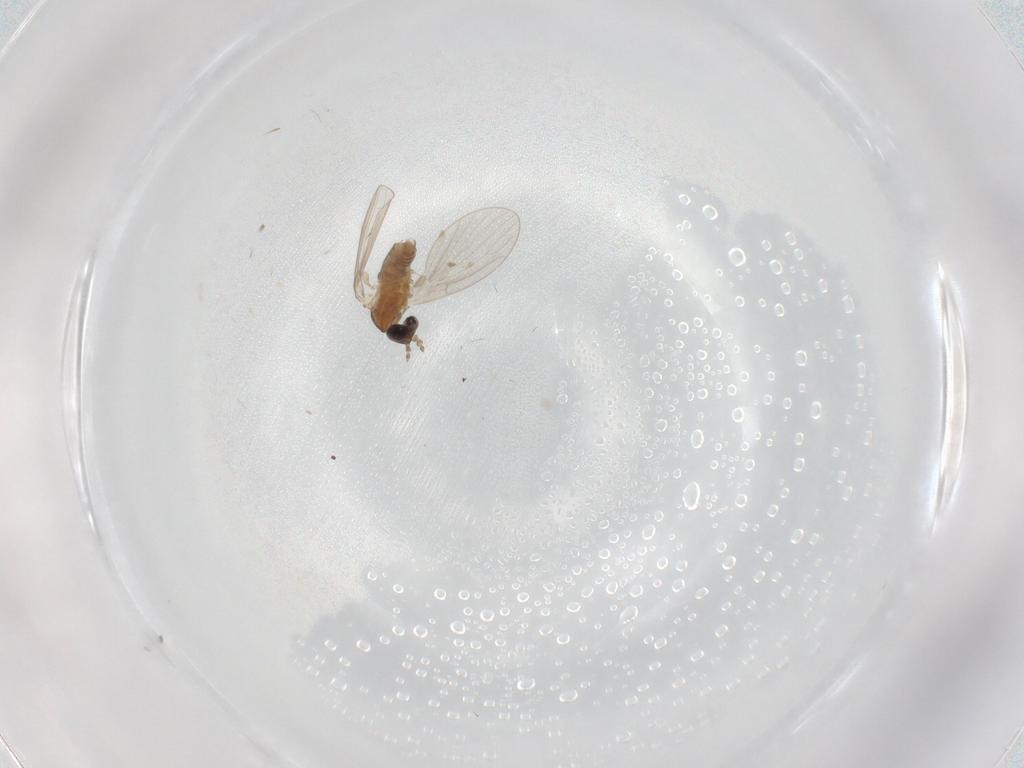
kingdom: Animalia
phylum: Arthropoda
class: Insecta
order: Diptera
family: Psychodidae
